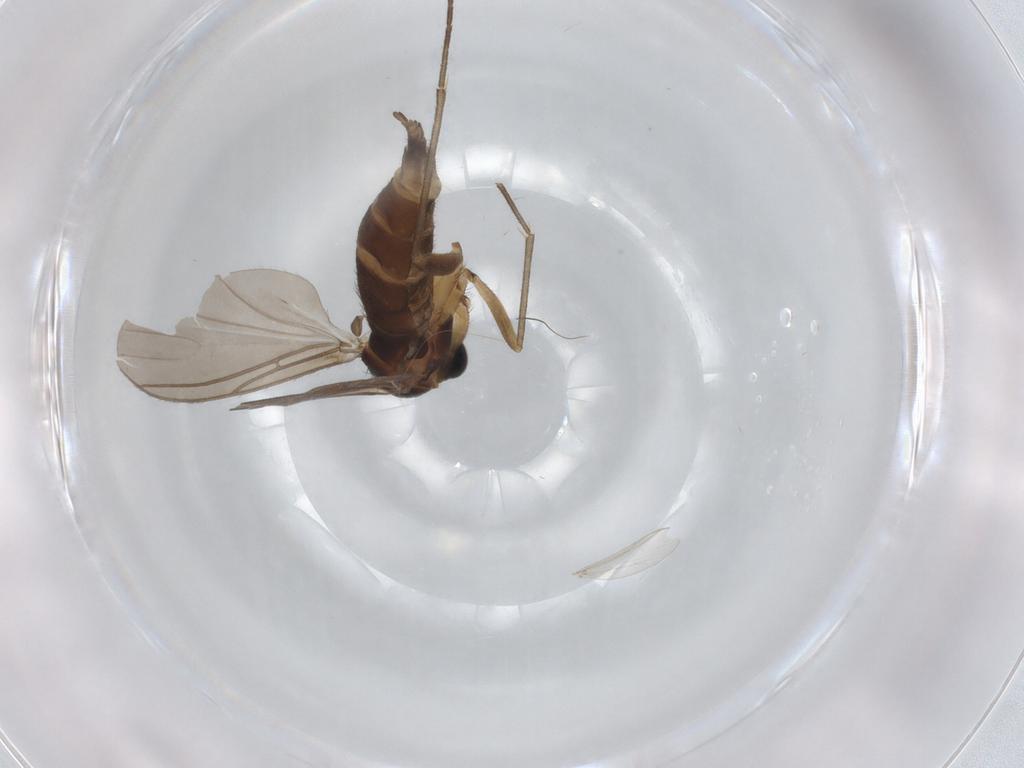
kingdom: Animalia
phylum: Arthropoda
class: Insecta
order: Diptera
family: Sciaridae
